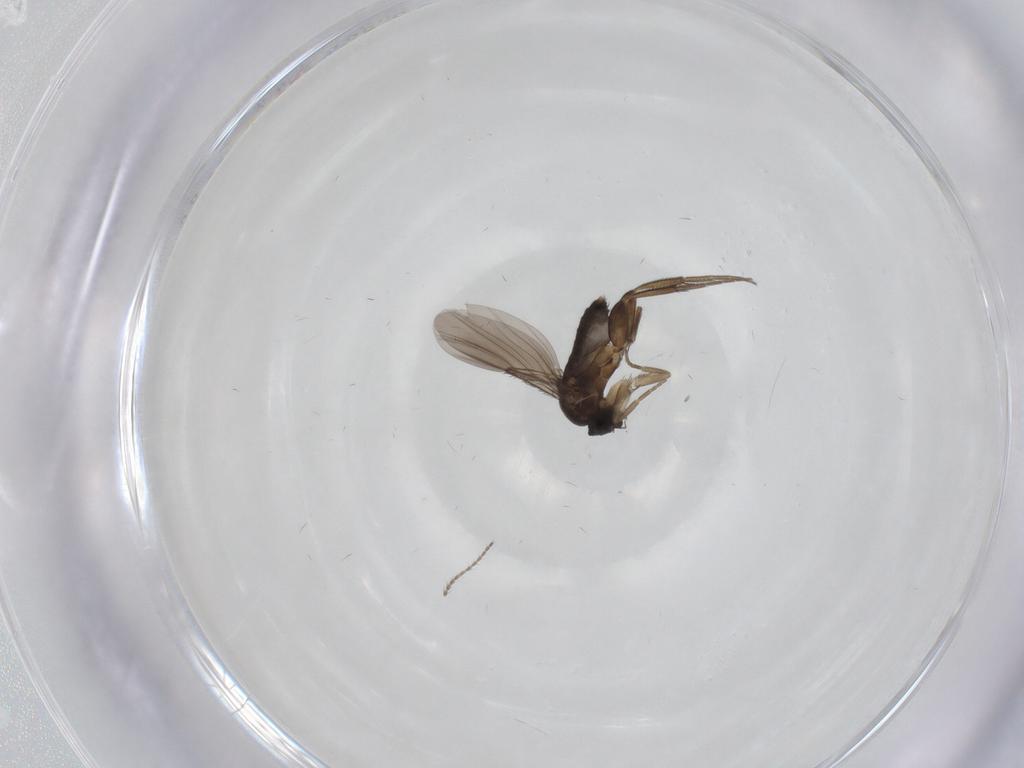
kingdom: Animalia
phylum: Arthropoda
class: Insecta
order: Diptera
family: Phoridae
